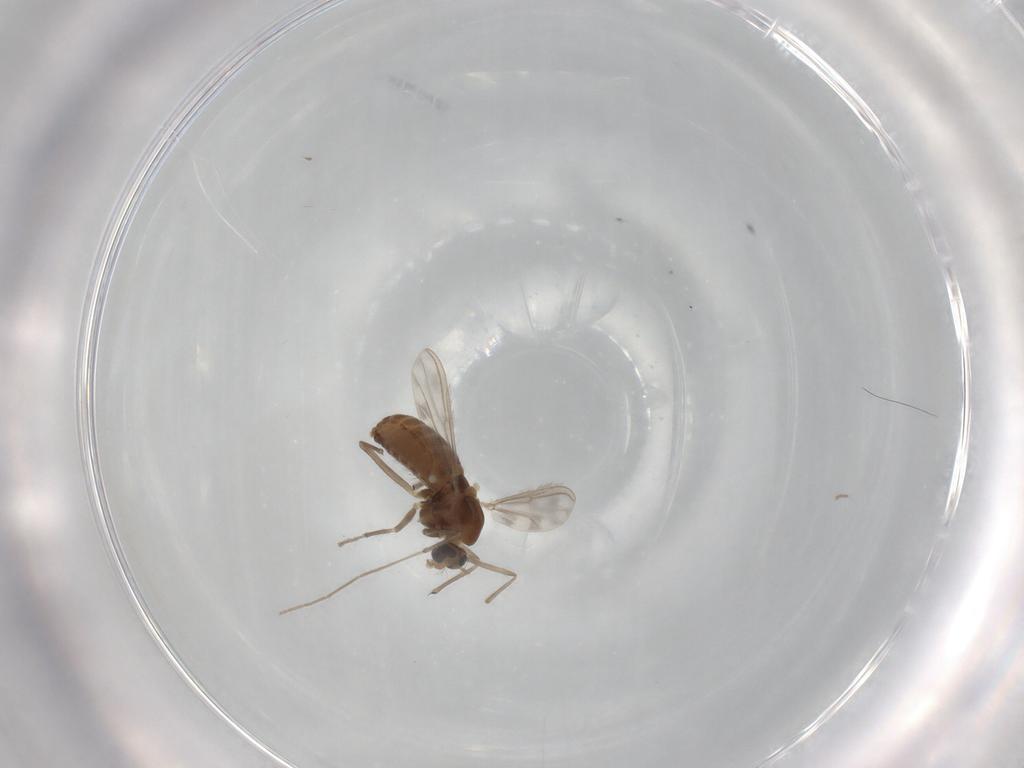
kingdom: Animalia
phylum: Arthropoda
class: Insecta
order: Diptera
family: Chironomidae
